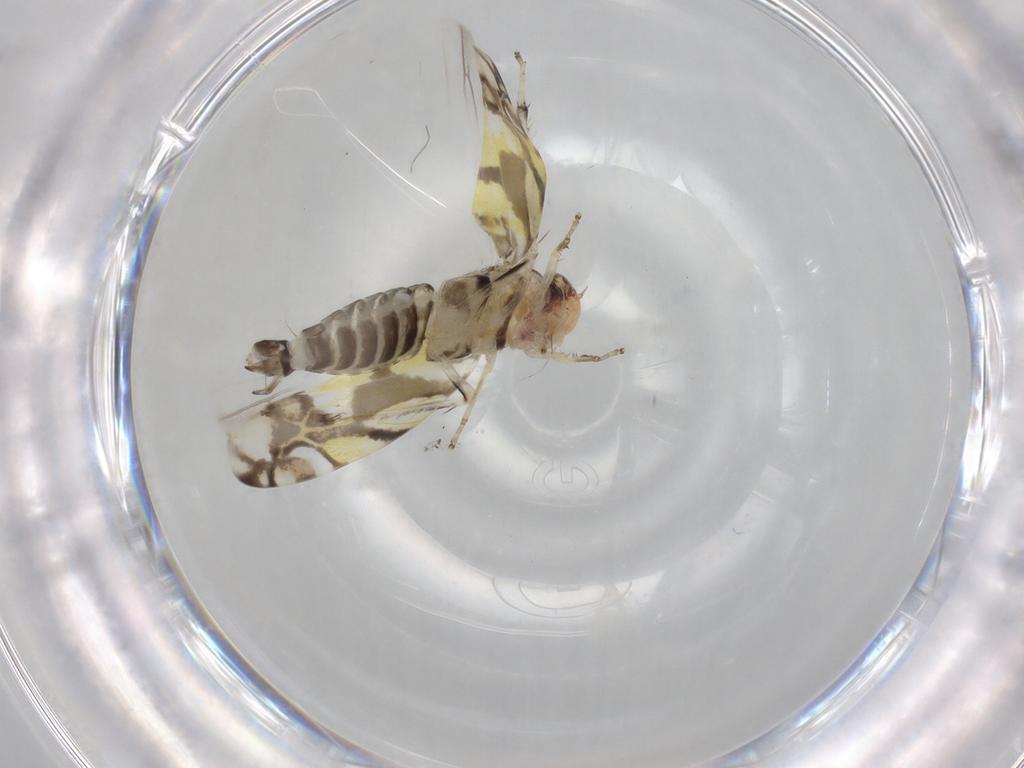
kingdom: Animalia
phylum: Arthropoda
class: Insecta
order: Hemiptera
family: Cicadellidae
